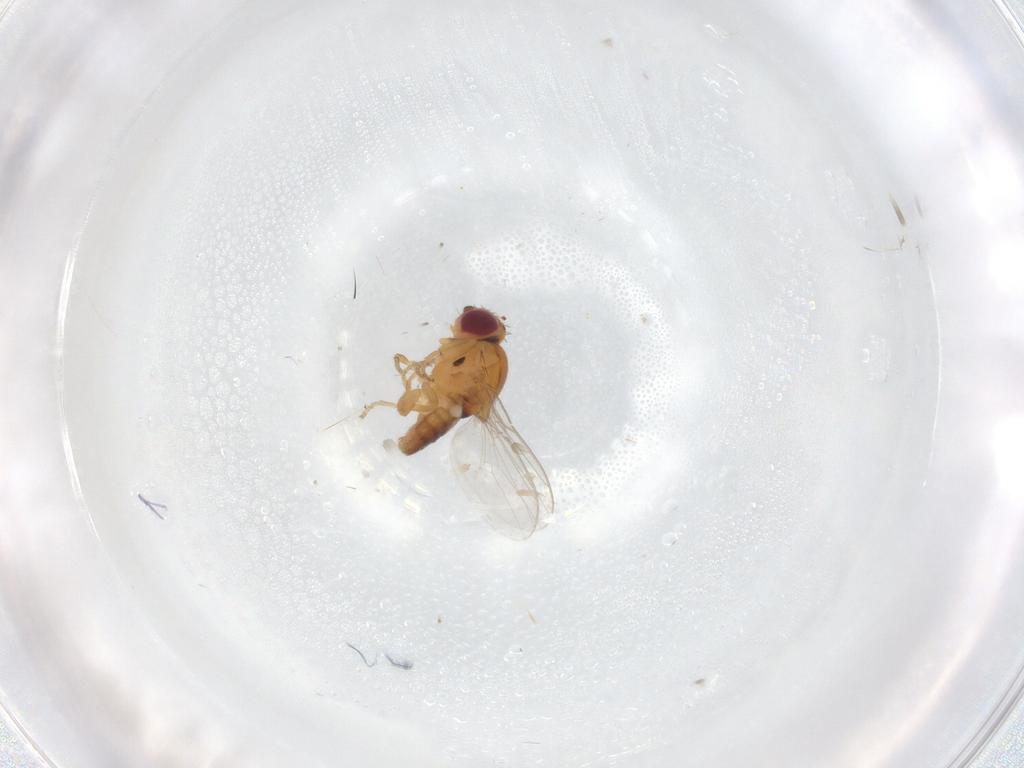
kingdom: Animalia
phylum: Arthropoda
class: Insecta
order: Diptera
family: Chloropidae
